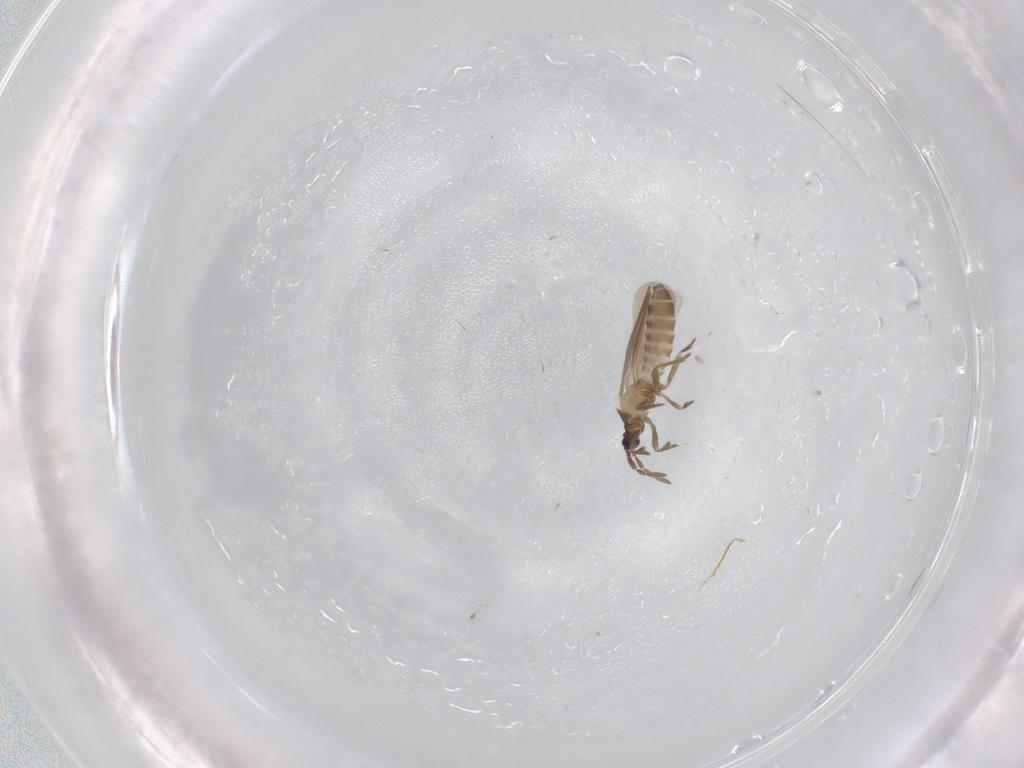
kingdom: Animalia
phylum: Arthropoda
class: Insecta
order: Hemiptera
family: Enicocephalidae
